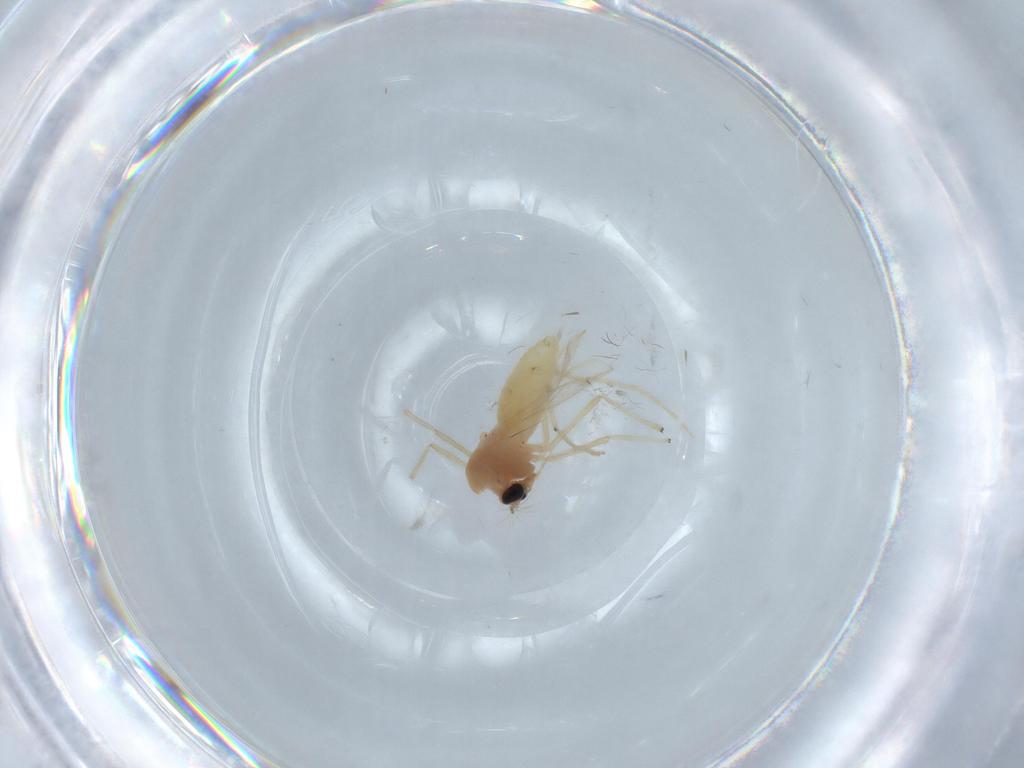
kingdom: Animalia
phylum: Arthropoda
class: Insecta
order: Diptera
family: Chironomidae
